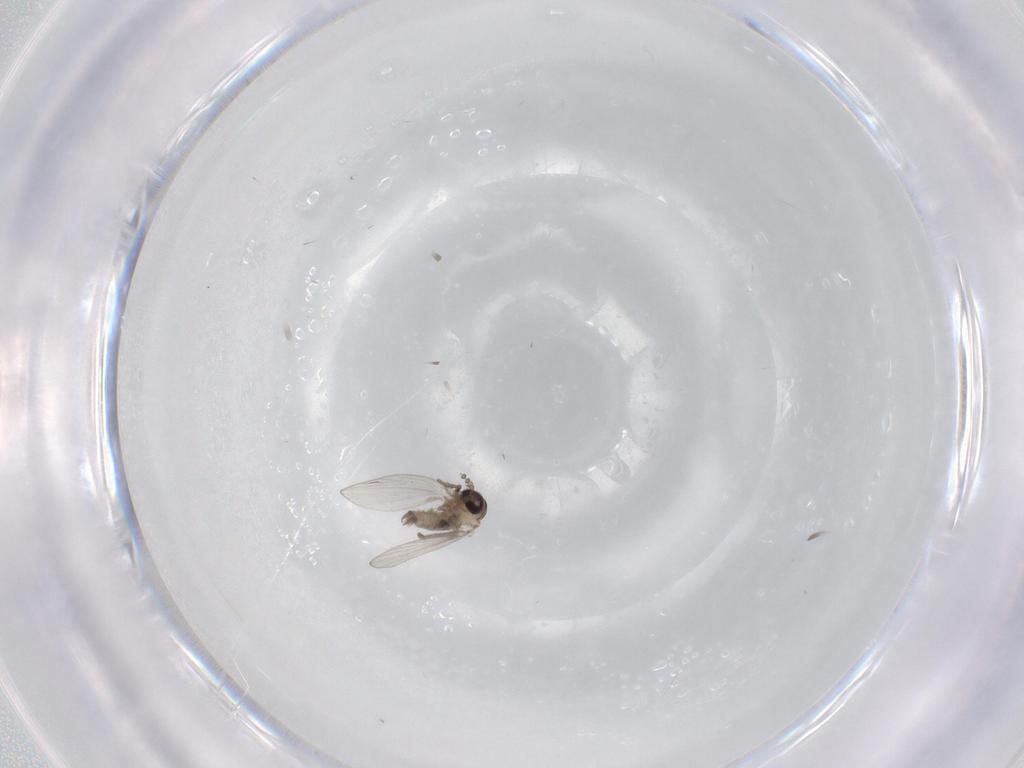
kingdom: Animalia
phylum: Arthropoda
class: Insecta
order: Diptera
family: Psychodidae
